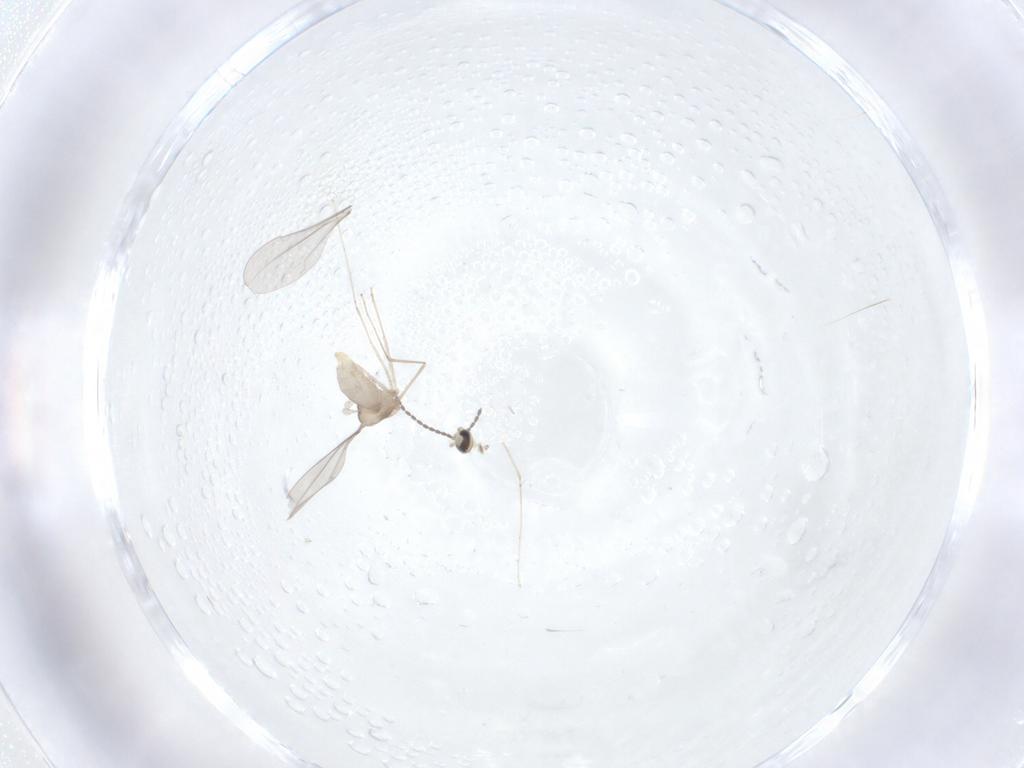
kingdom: Animalia
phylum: Arthropoda
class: Insecta
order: Diptera
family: Cecidomyiidae
